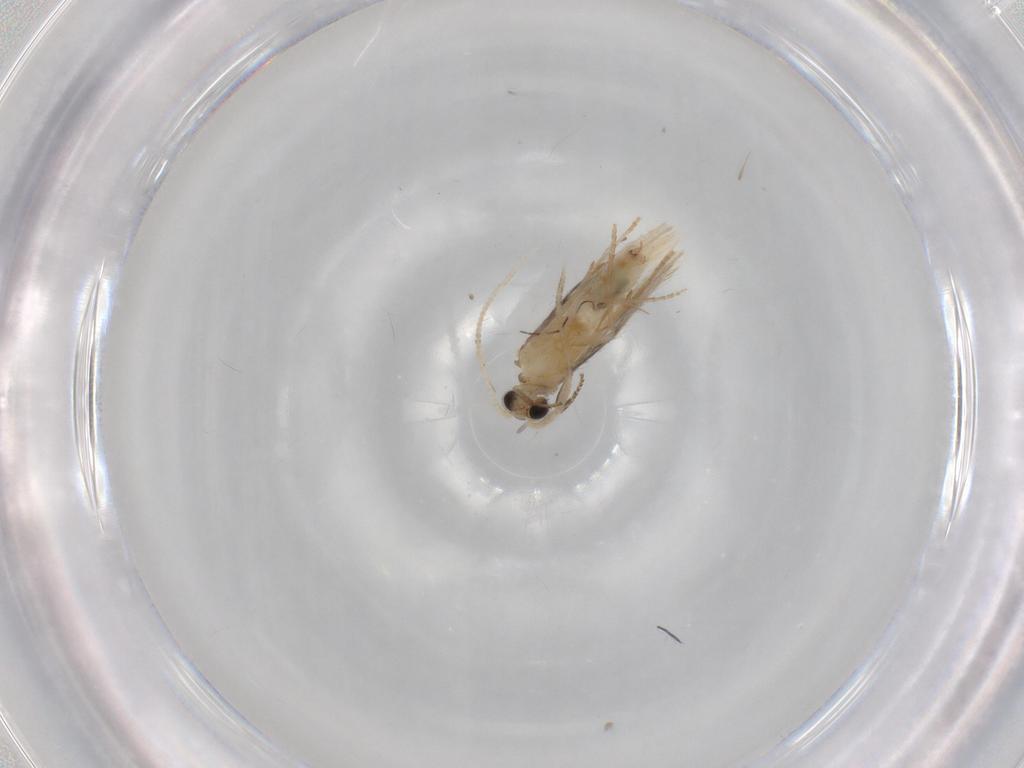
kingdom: Animalia
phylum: Arthropoda
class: Insecta
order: Trichoptera
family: Hydroptilidae
